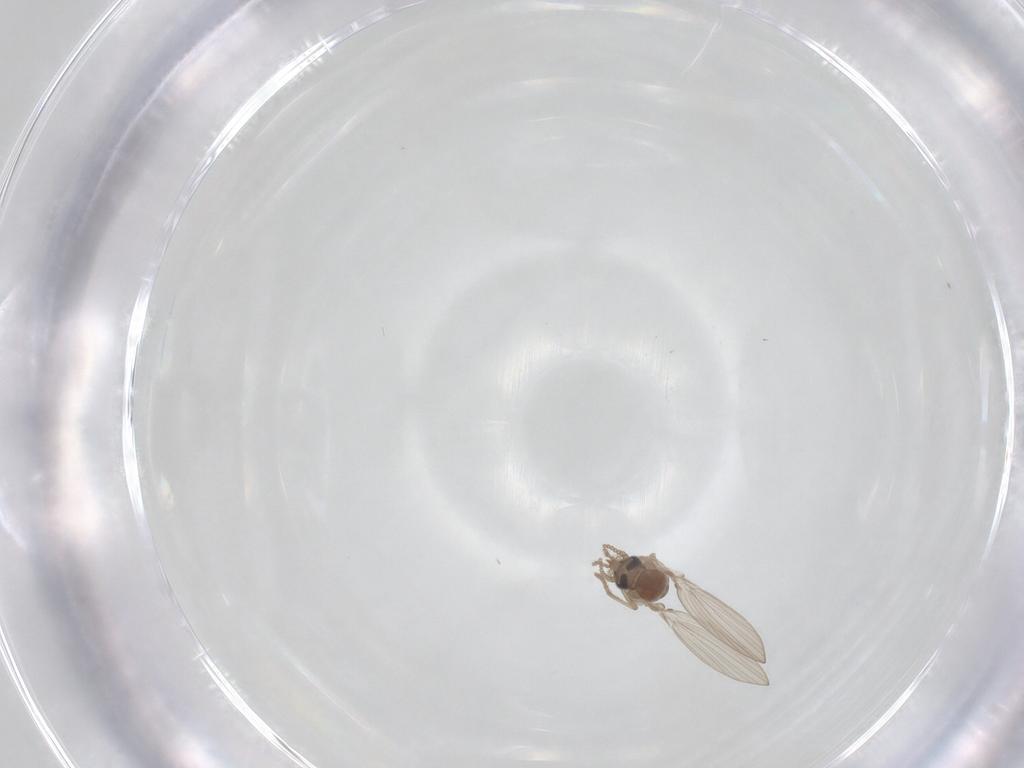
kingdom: Animalia
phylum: Arthropoda
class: Insecta
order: Diptera
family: Psychodidae
